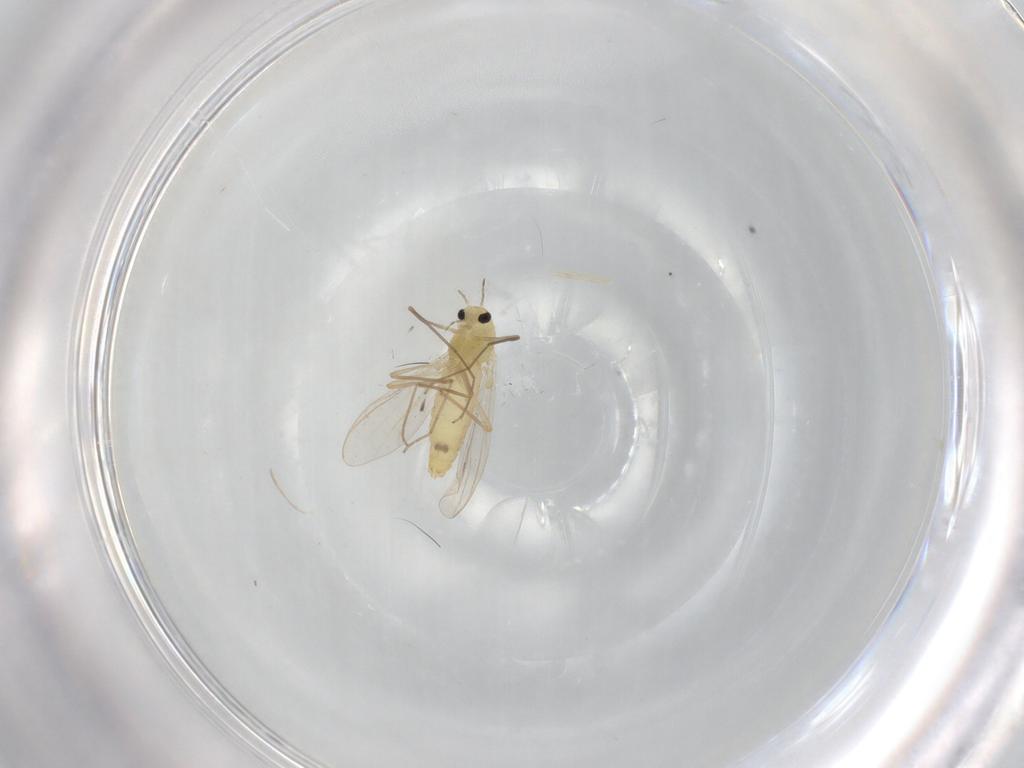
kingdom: Animalia
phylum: Arthropoda
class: Insecta
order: Diptera
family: Chironomidae
